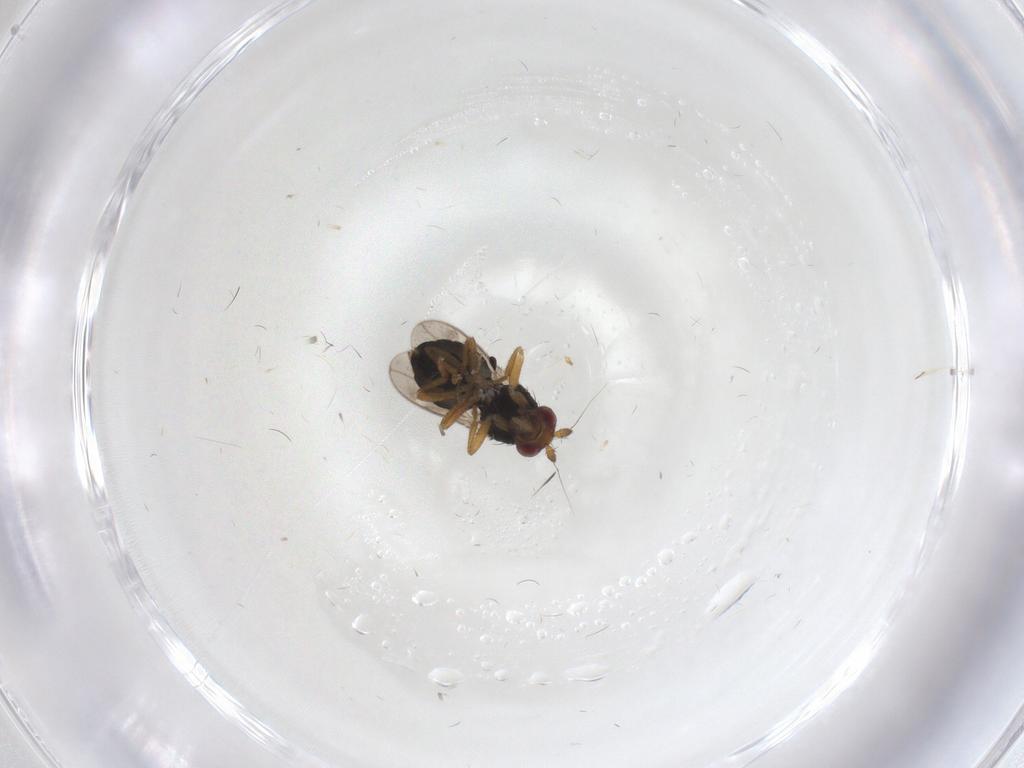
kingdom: Animalia
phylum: Arthropoda
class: Insecta
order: Diptera
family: Sphaeroceridae
